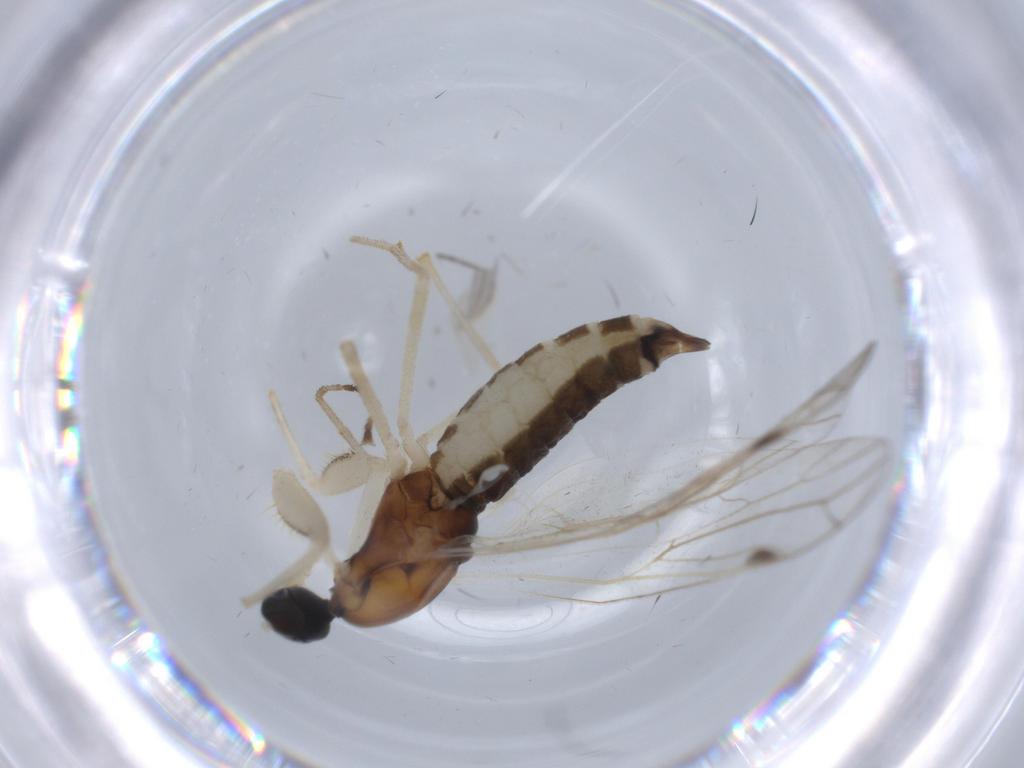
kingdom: Animalia
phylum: Arthropoda
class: Insecta
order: Diptera
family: Empididae
